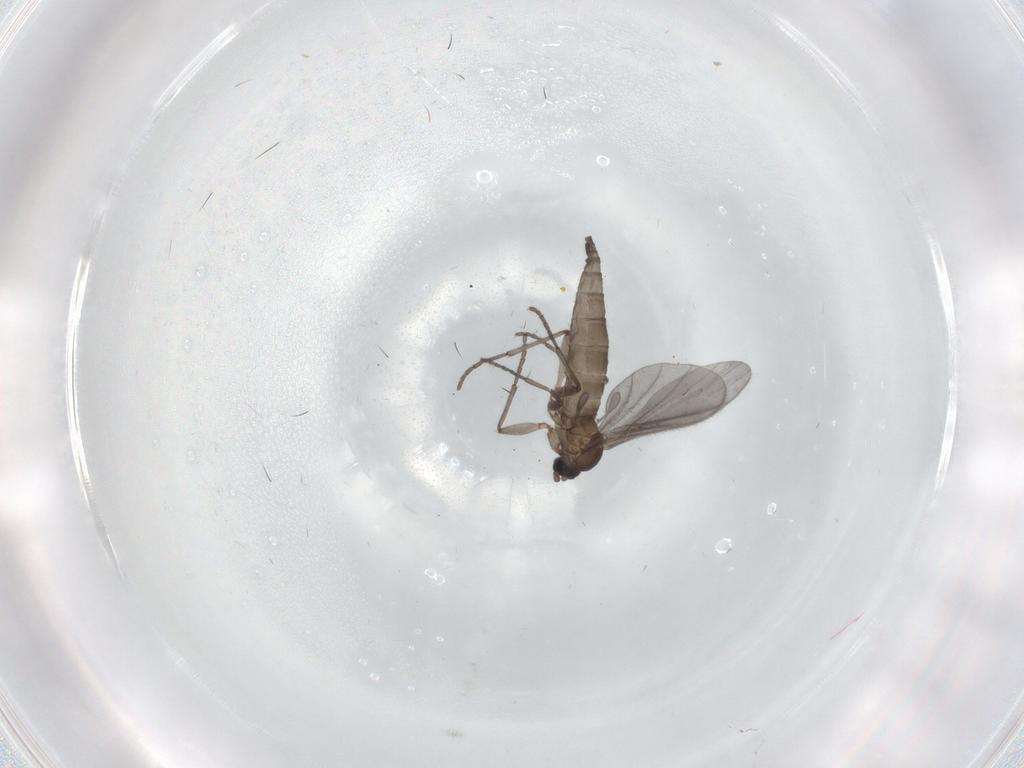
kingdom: Animalia
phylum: Arthropoda
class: Insecta
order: Diptera
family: Sciaridae
